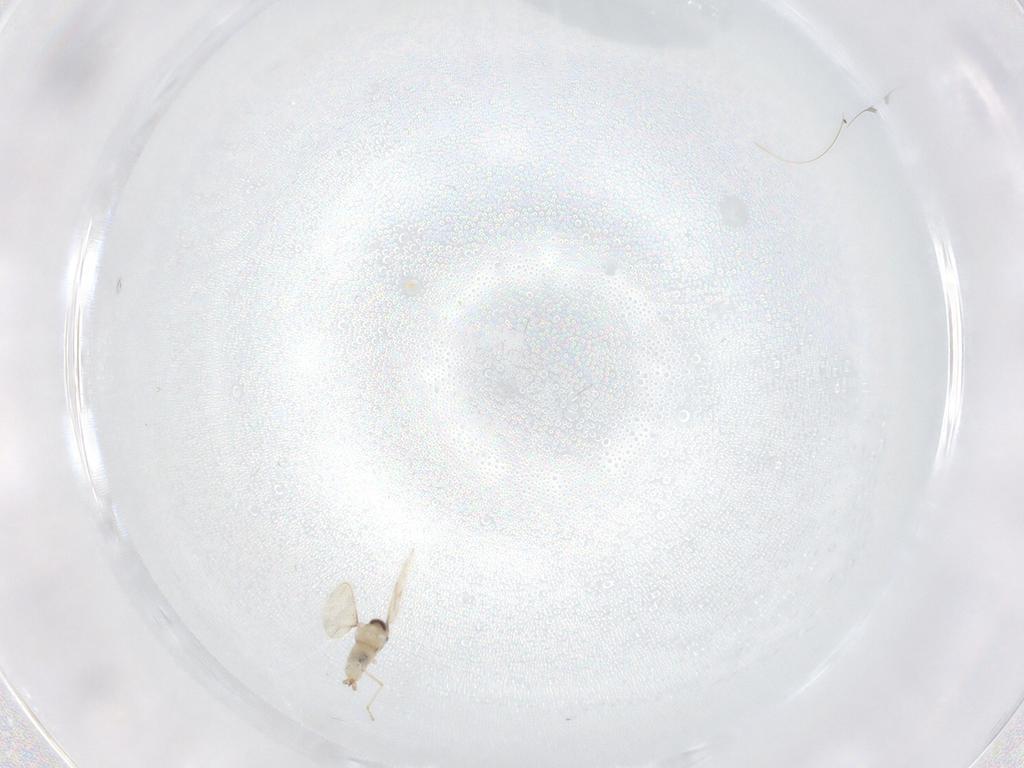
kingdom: Animalia
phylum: Arthropoda
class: Insecta
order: Diptera
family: Cecidomyiidae
